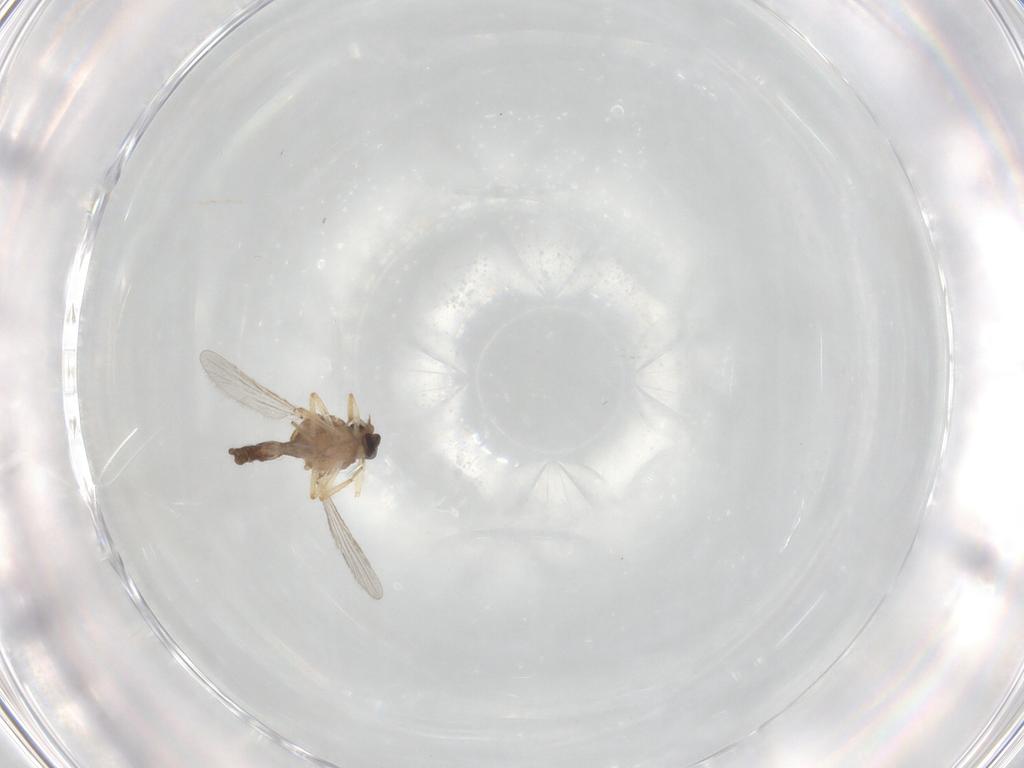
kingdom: Animalia
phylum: Arthropoda
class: Insecta
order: Diptera
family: Ceratopogonidae
